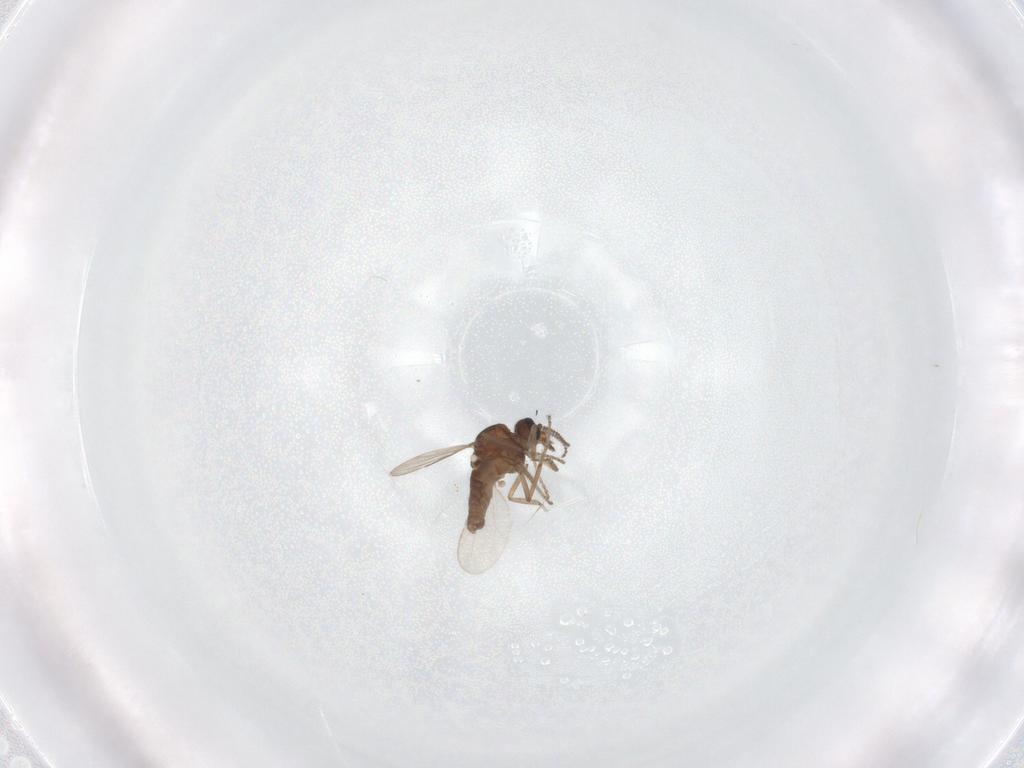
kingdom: Animalia
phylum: Arthropoda
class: Insecta
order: Diptera
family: Ceratopogonidae
